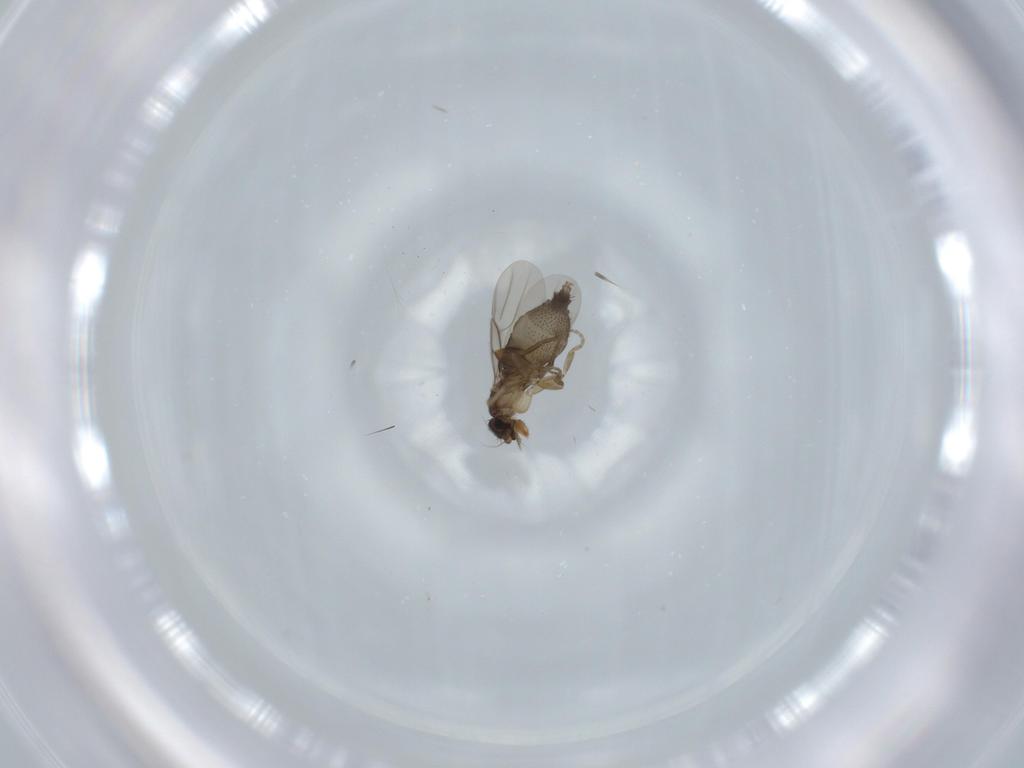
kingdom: Animalia
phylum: Arthropoda
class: Insecta
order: Diptera
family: Phoridae
